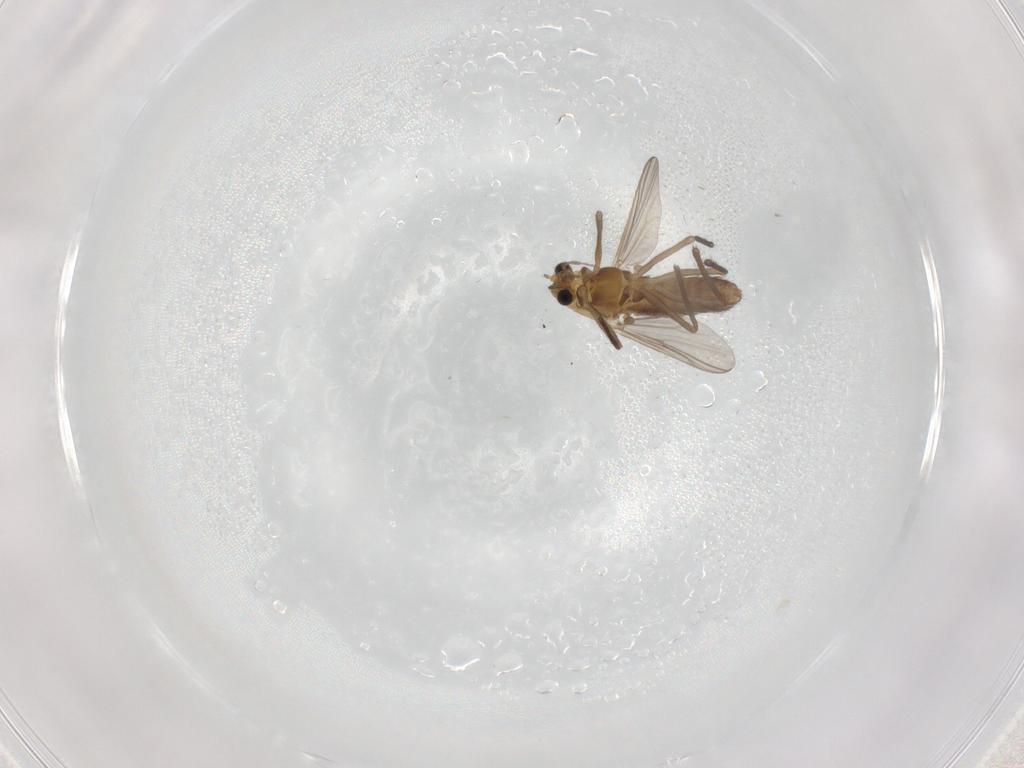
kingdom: Animalia
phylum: Arthropoda
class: Insecta
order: Diptera
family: Chironomidae
